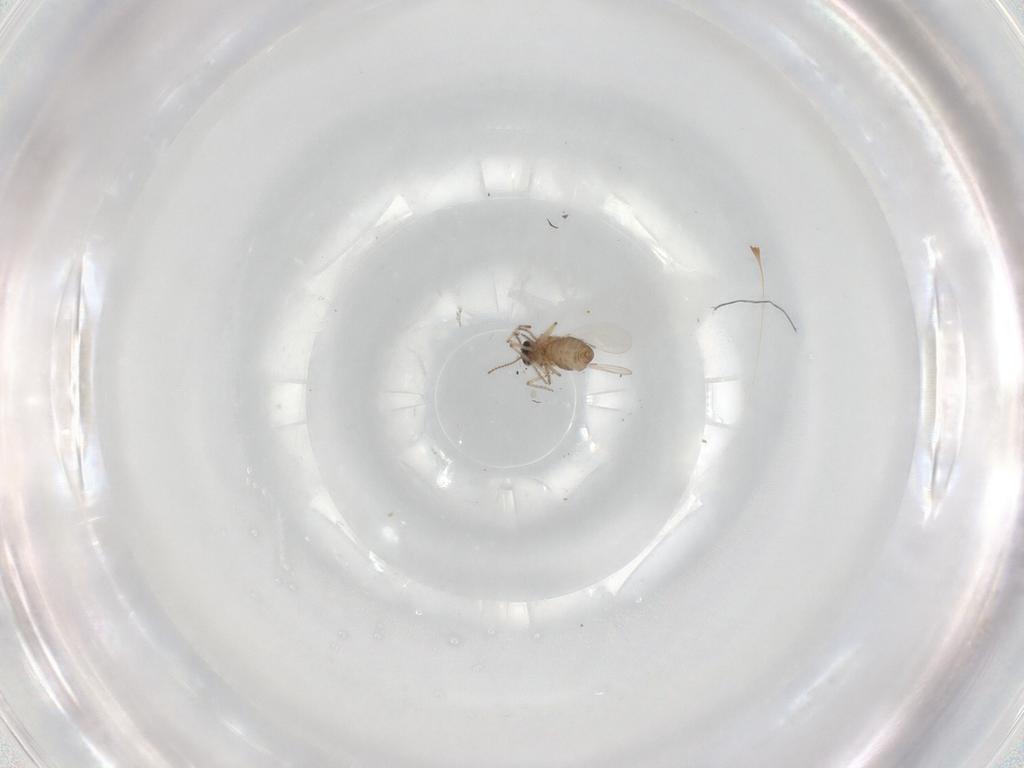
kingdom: Animalia
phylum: Arthropoda
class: Insecta
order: Diptera
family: Ceratopogonidae
